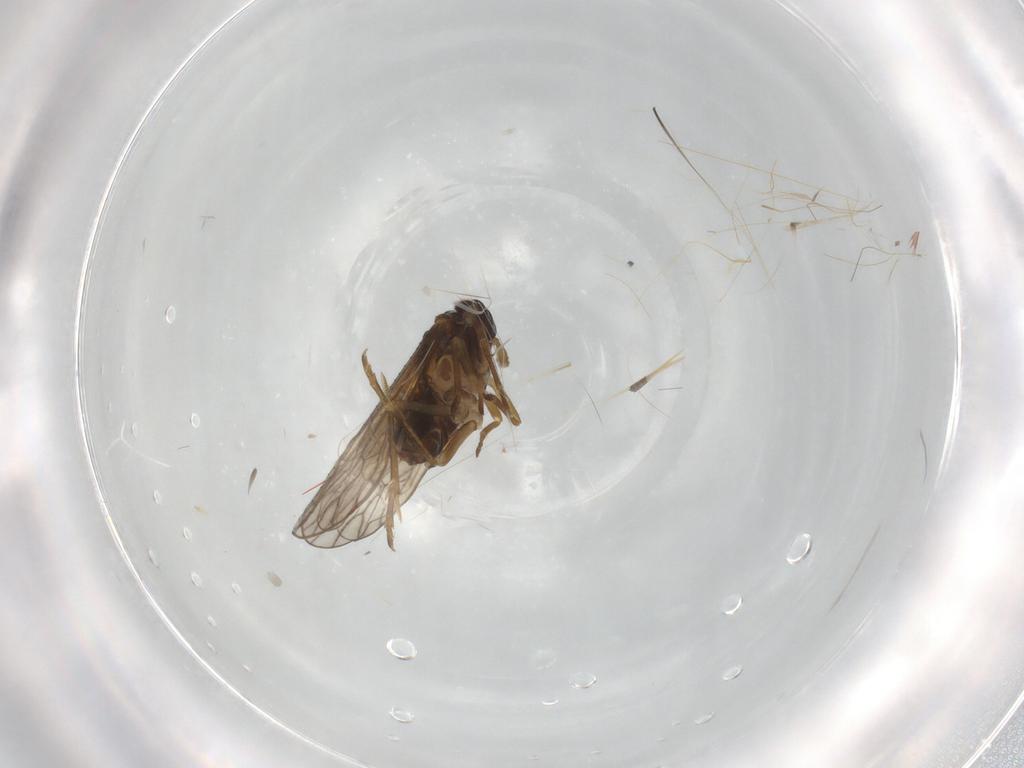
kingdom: Animalia
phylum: Arthropoda
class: Insecta
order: Hemiptera
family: Delphacidae
